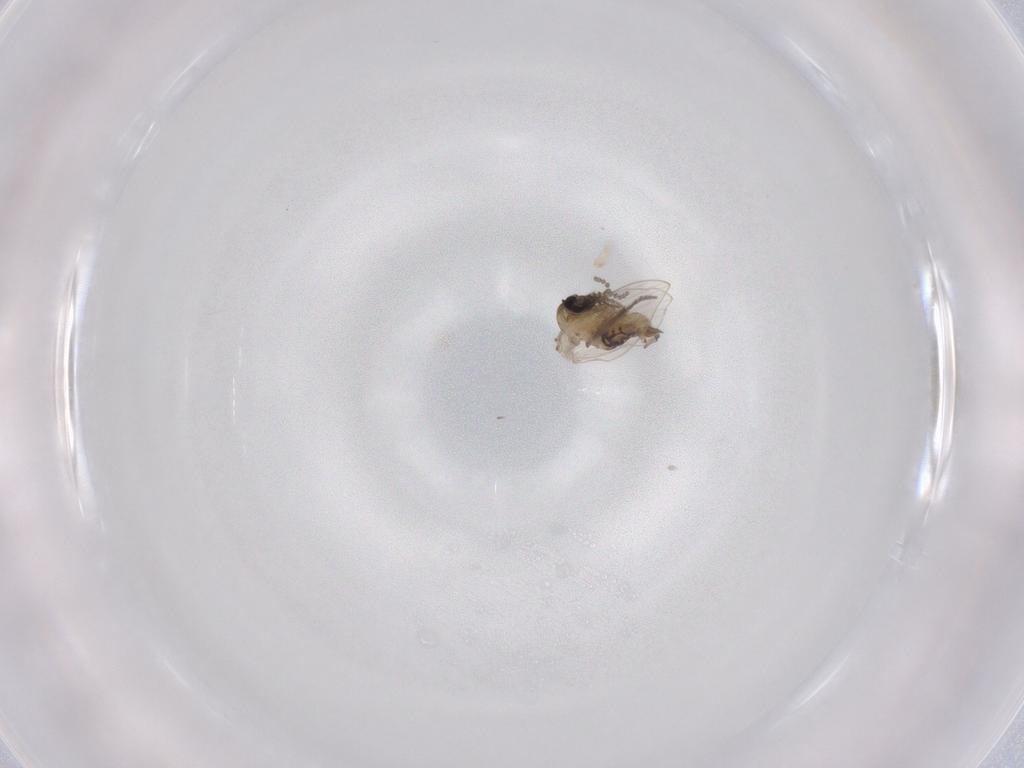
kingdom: Animalia
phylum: Arthropoda
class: Insecta
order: Diptera
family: Psychodidae
